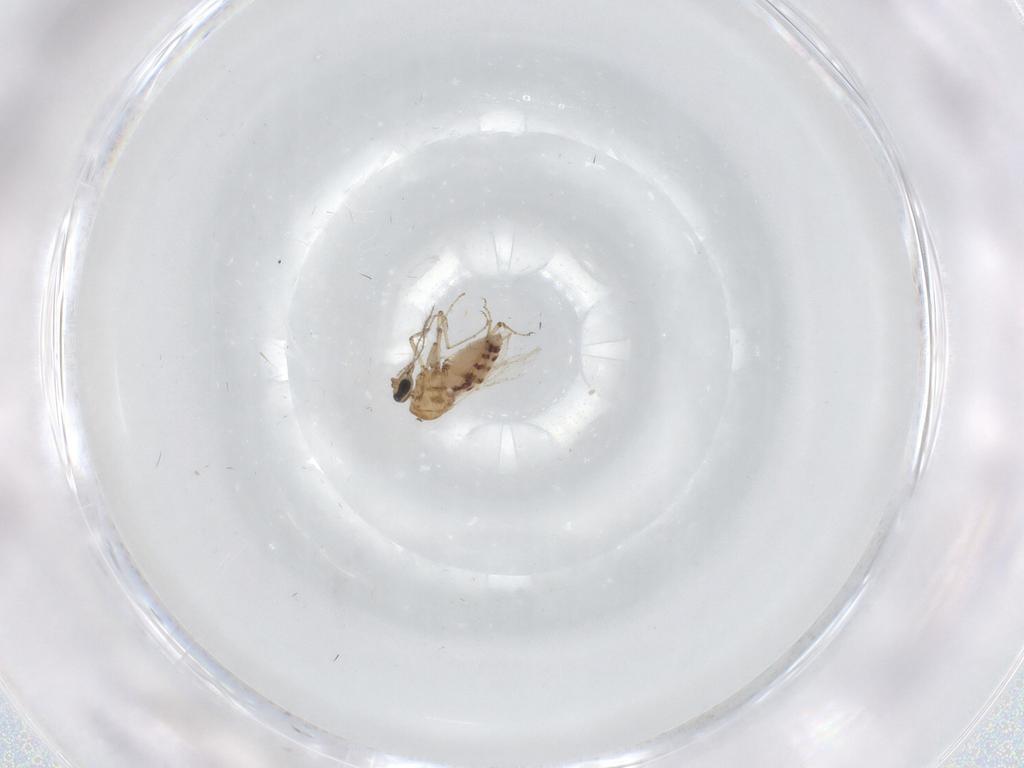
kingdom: Animalia
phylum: Arthropoda
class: Insecta
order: Diptera
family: Ceratopogonidae
